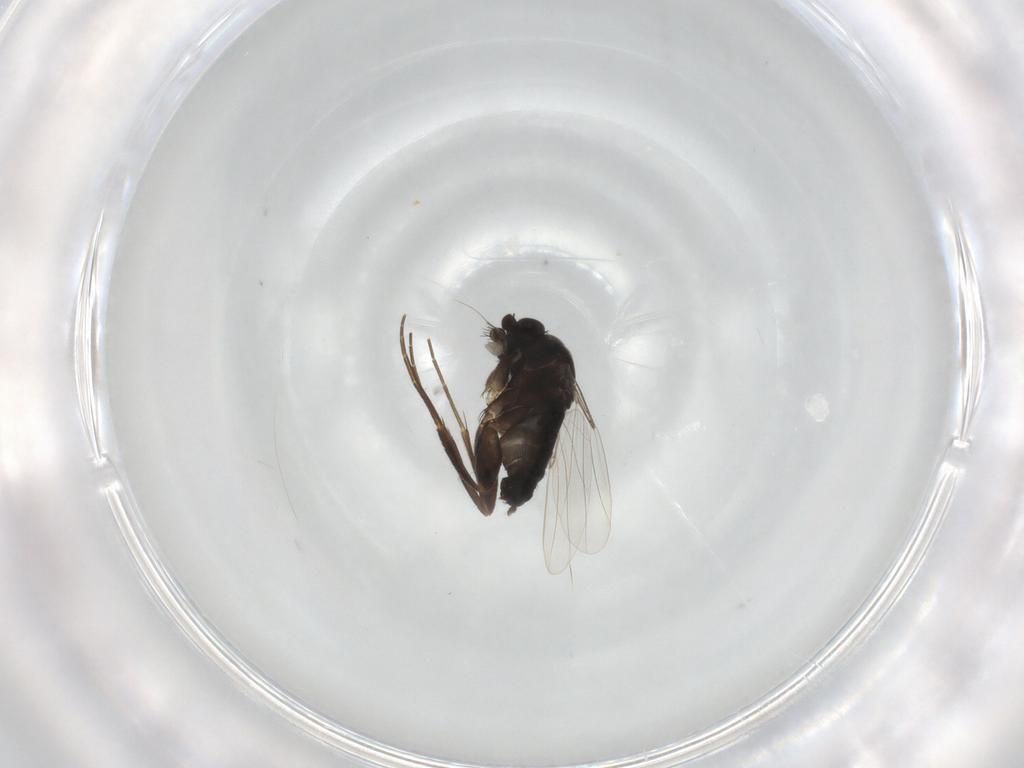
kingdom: Animalia
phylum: Arthropoda
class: Insecta
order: Diptera
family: Phoridae
